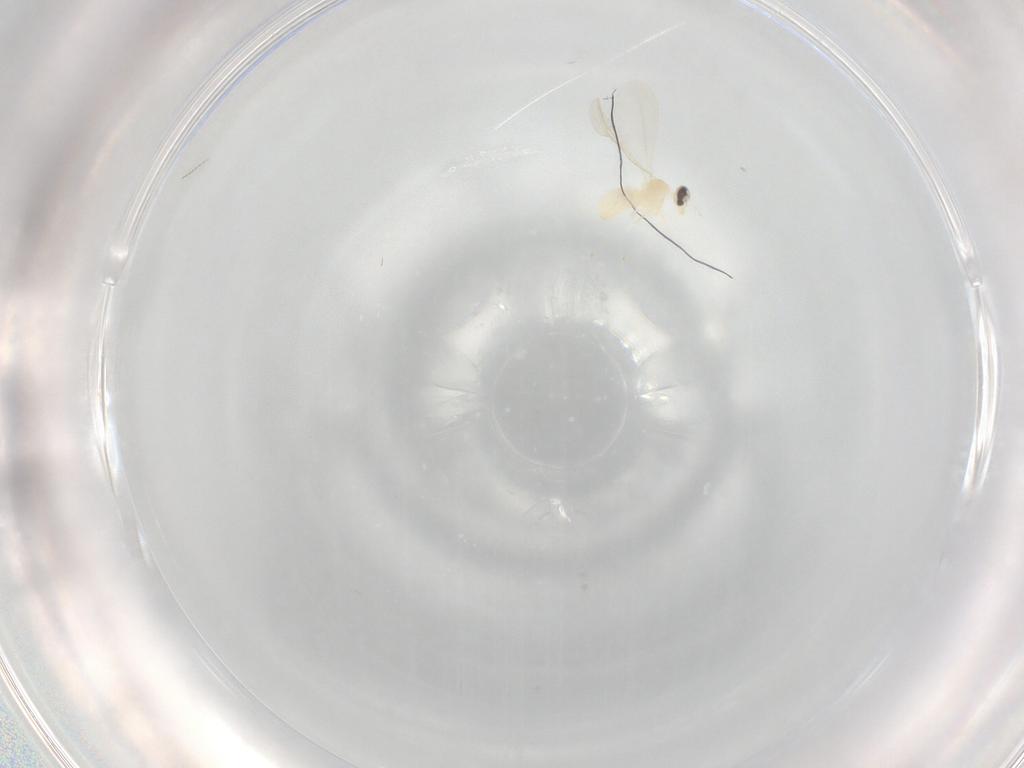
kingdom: Animalia
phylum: Arthropoda
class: Insecta
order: Diptera
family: Cecidomyiidae
